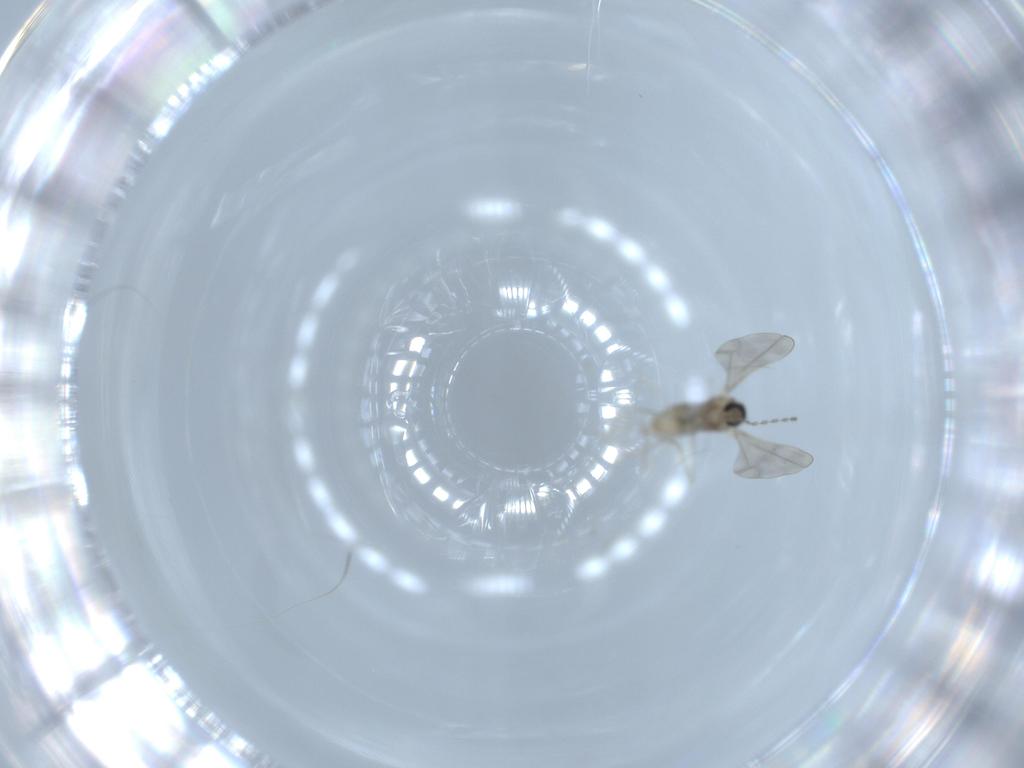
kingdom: Animalia
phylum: Arthropoda
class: Insecta
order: Diptera
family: Cecidomyiidae
